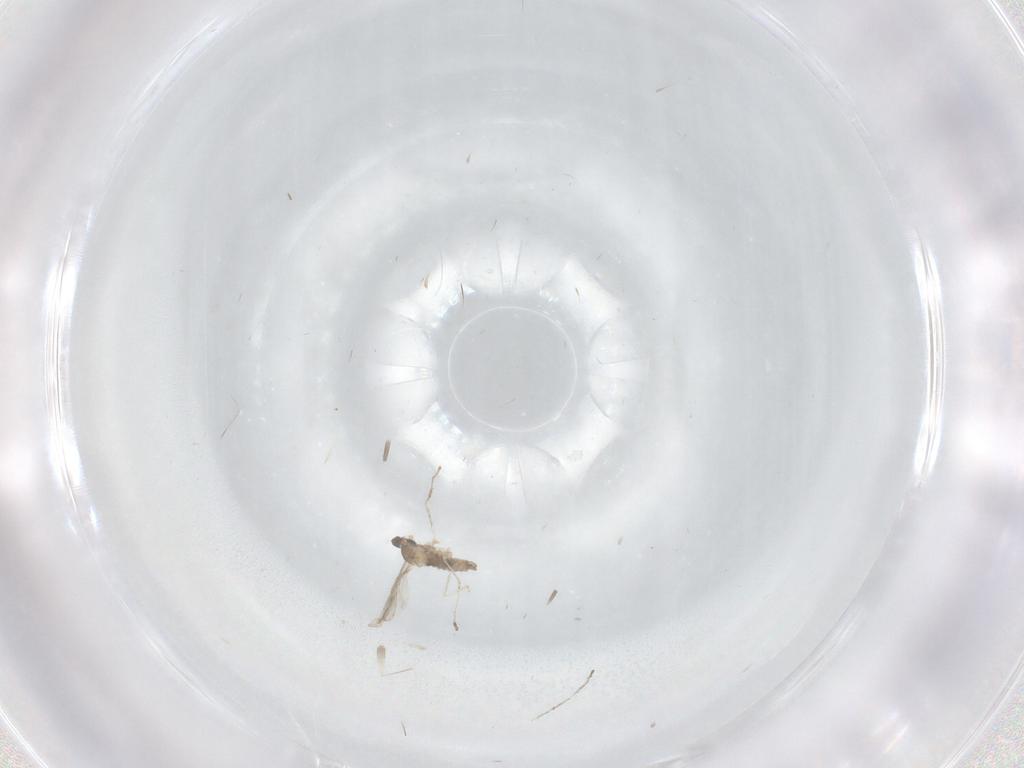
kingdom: Animalia
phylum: Arthropoda
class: Insecta
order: Diptera
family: Cecidomyiidae
